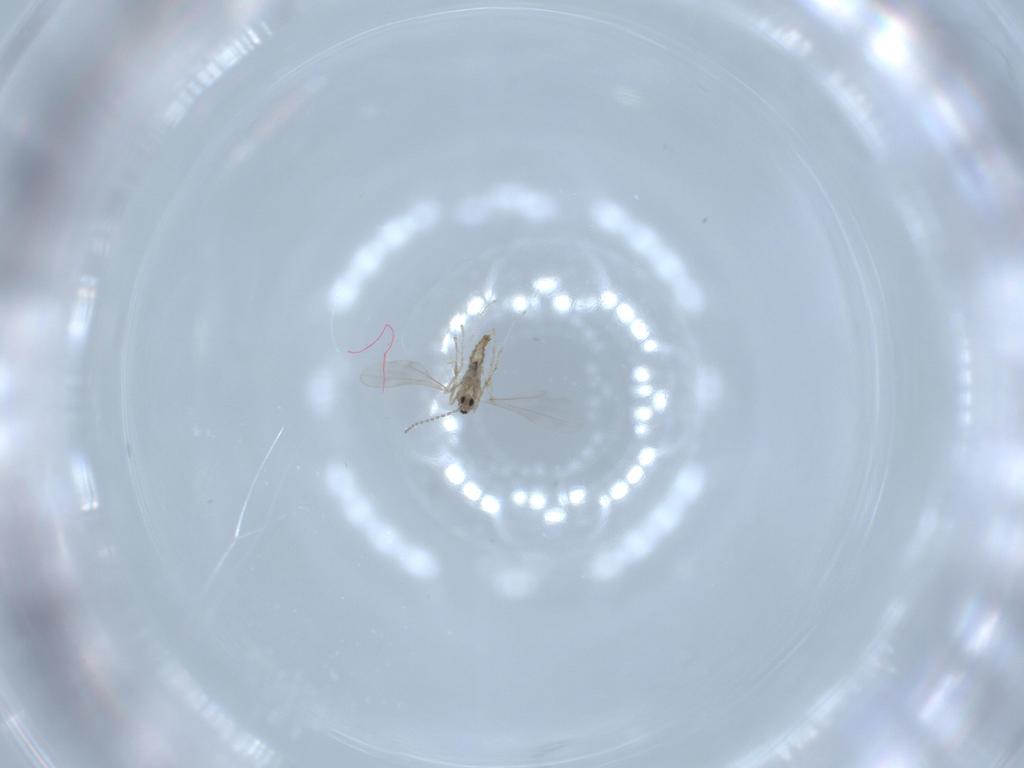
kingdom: Animalia
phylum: Arthropoda
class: Insecta
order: Diptera
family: Cecidomyiidae
